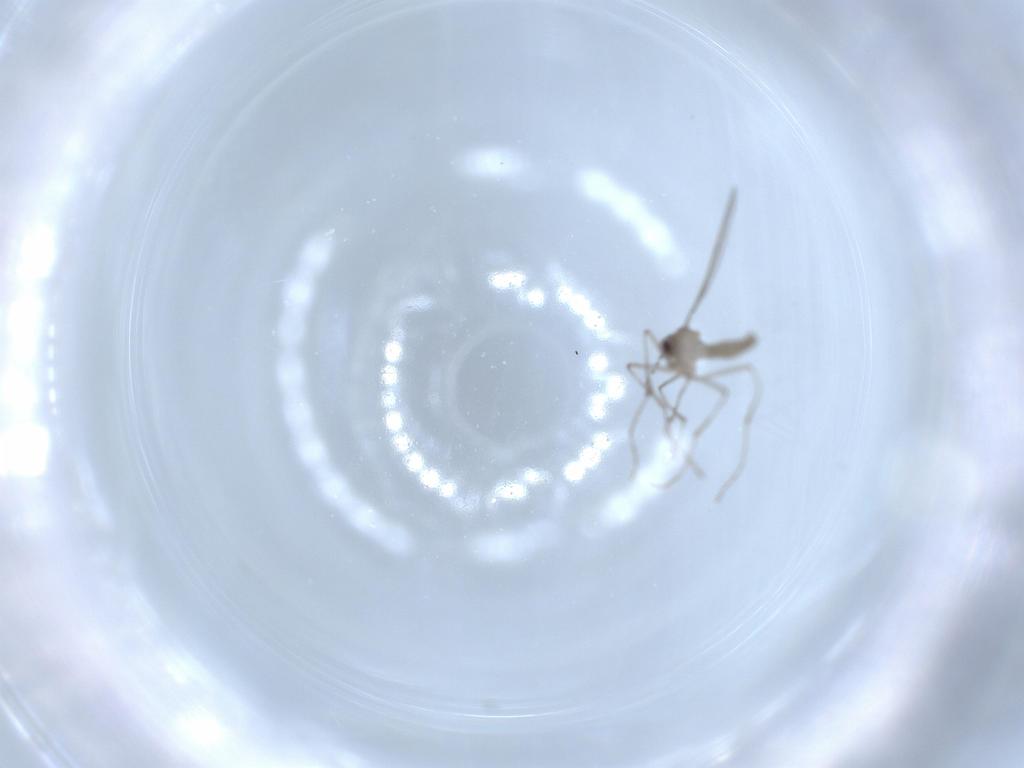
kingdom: Animalia
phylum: Arthropoda
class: Insecta
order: Diptera
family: Cecidomyiidae
